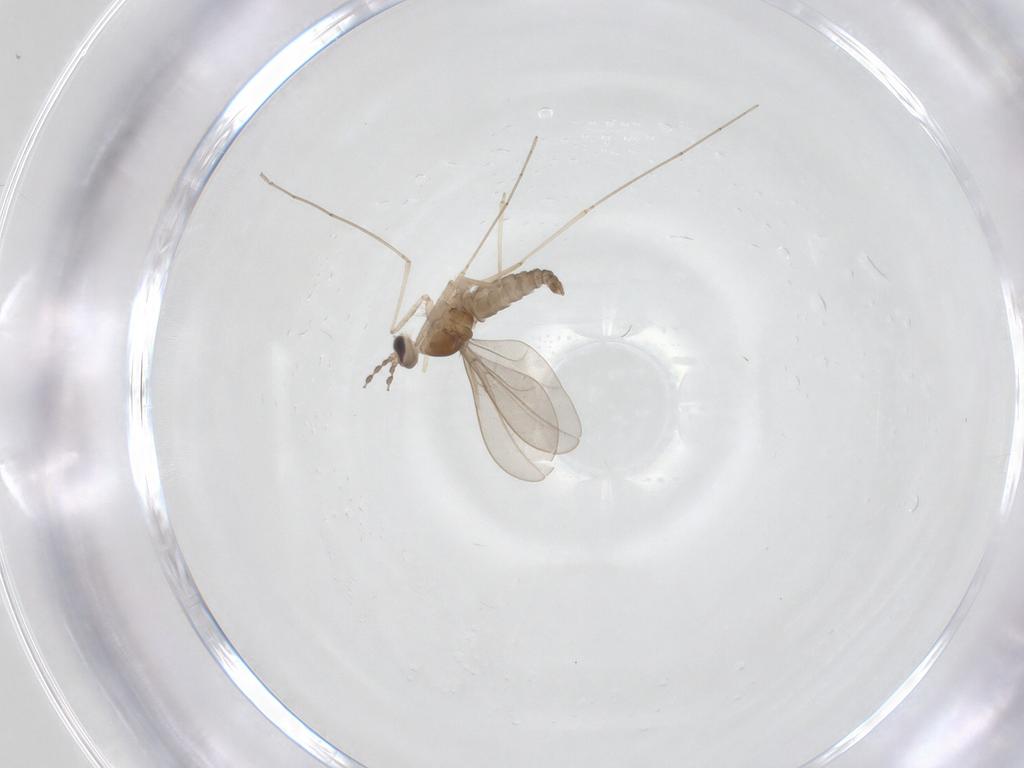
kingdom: Animalia
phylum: Arthropoda
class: Insecta
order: Diptera
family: Cecidomyiidae
